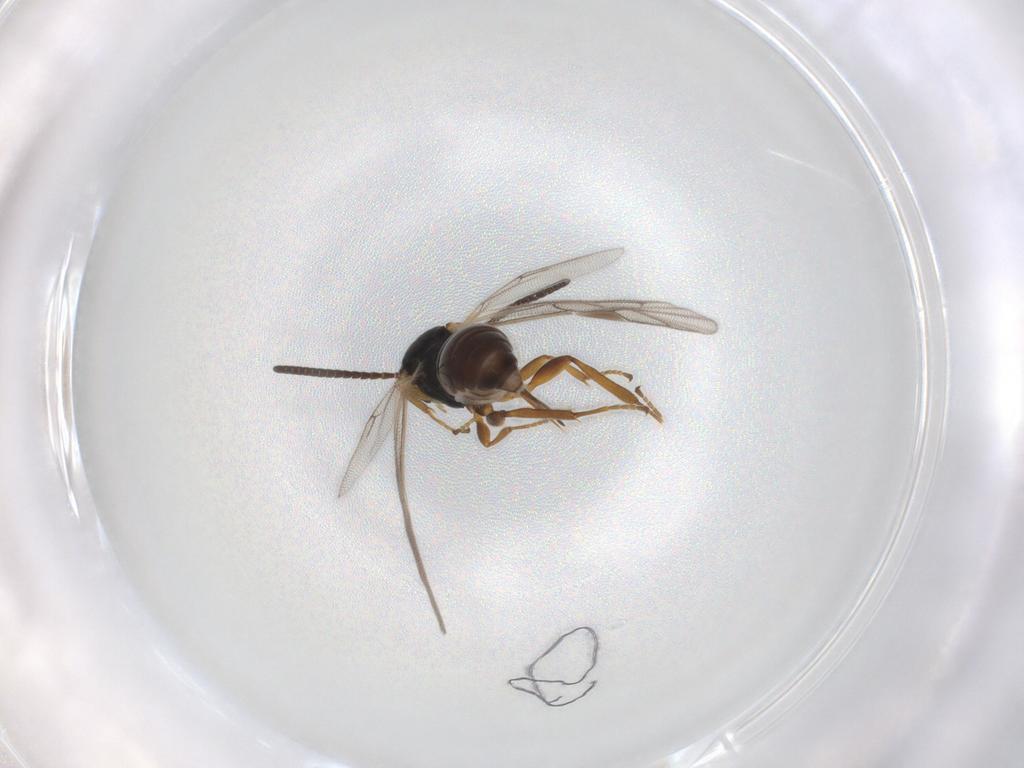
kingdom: Animalia
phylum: Arthropoda
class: Insecta
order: Hymenoptera
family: Ichneumonidae
